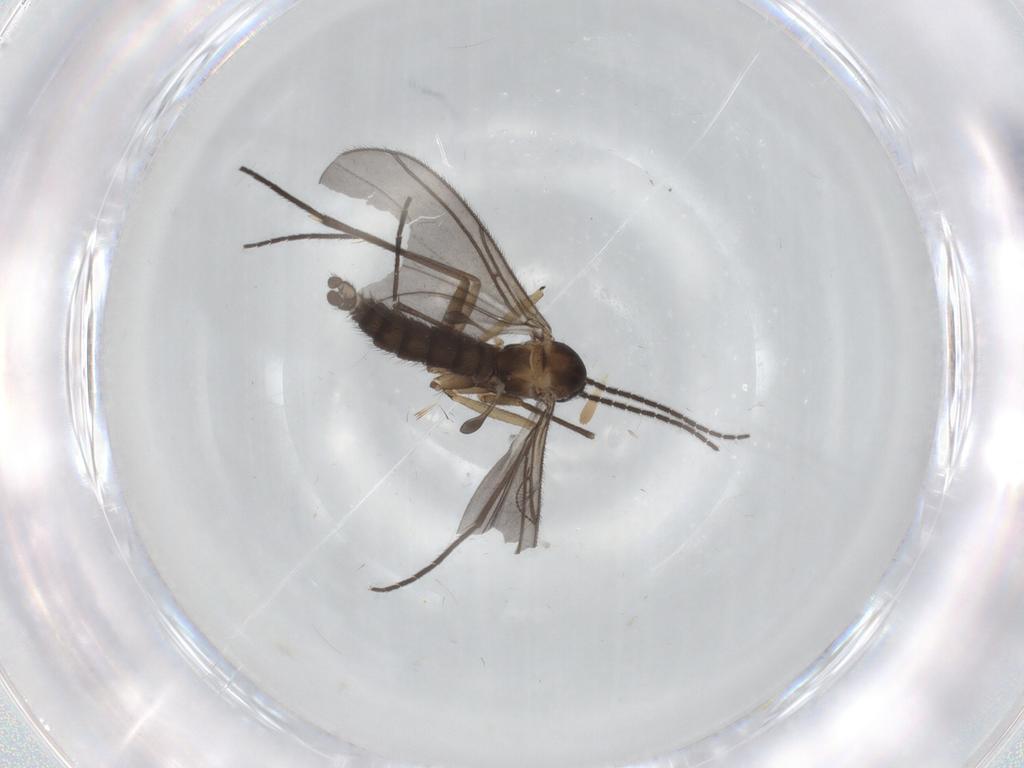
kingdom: Animalia
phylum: Arthropoda
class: Insecta
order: Diptera
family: Sciaridae
